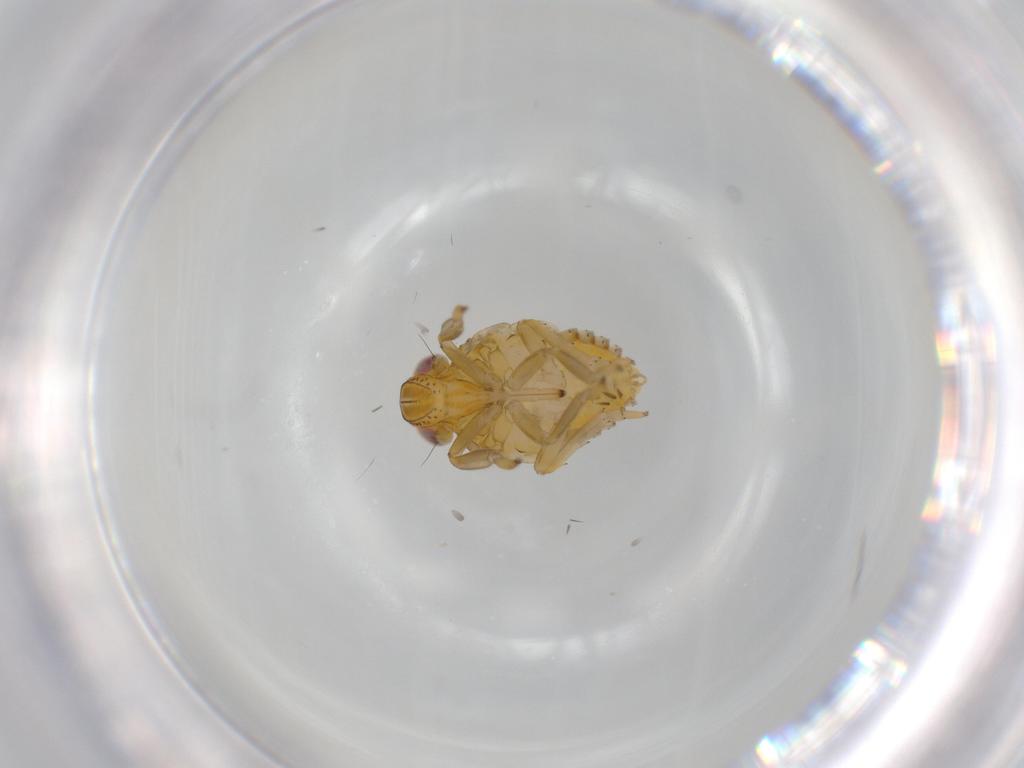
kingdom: Animalia
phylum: Arthropoda
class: Insecta
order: Hemiptera
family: Issidae
